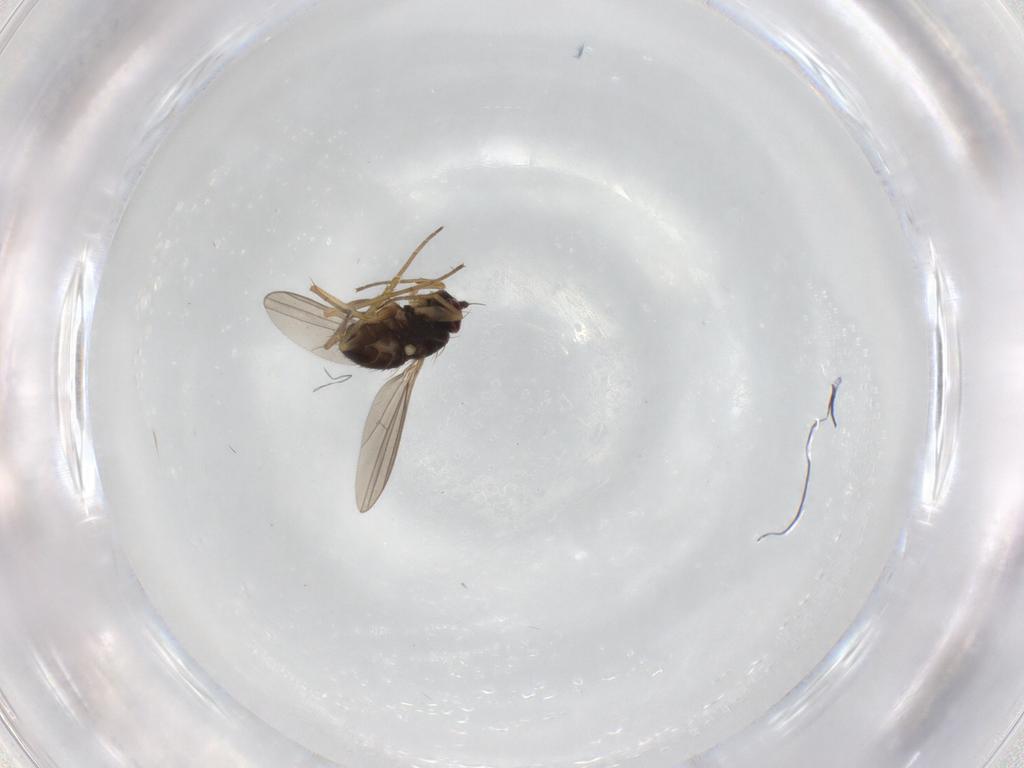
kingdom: Animalia
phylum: Arthropoda
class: Insecta
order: Diptera
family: Dolichopodidae
